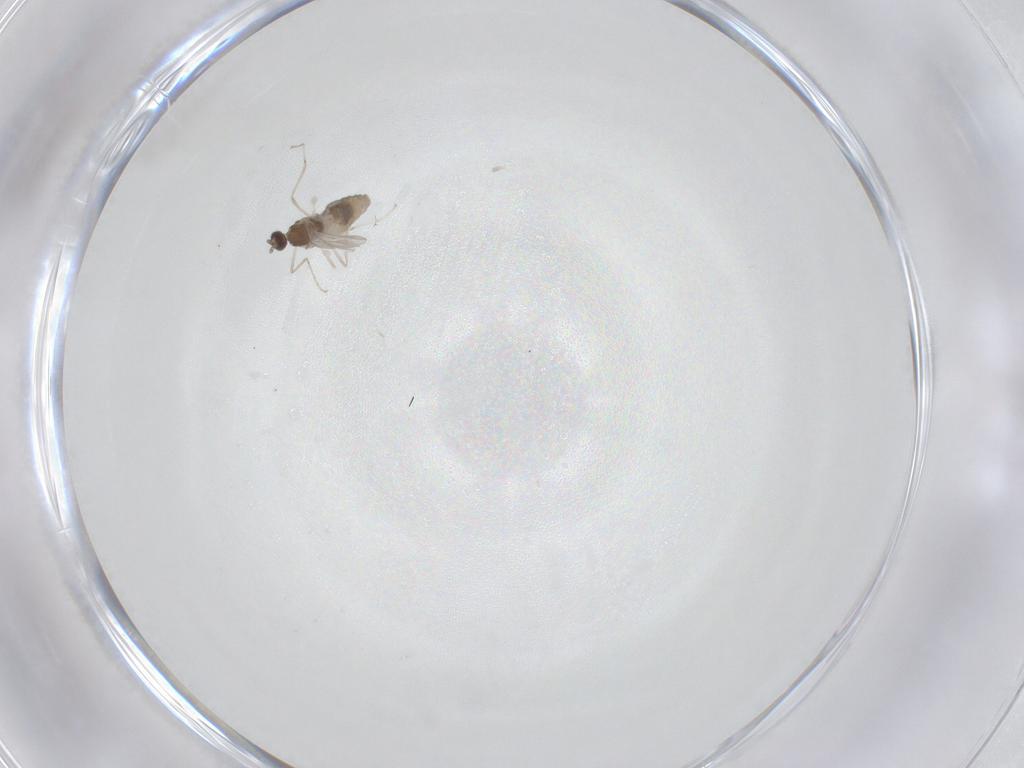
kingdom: Animalia
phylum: Arthropoda
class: Insecta
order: Diptera
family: Cecidomyiidae
